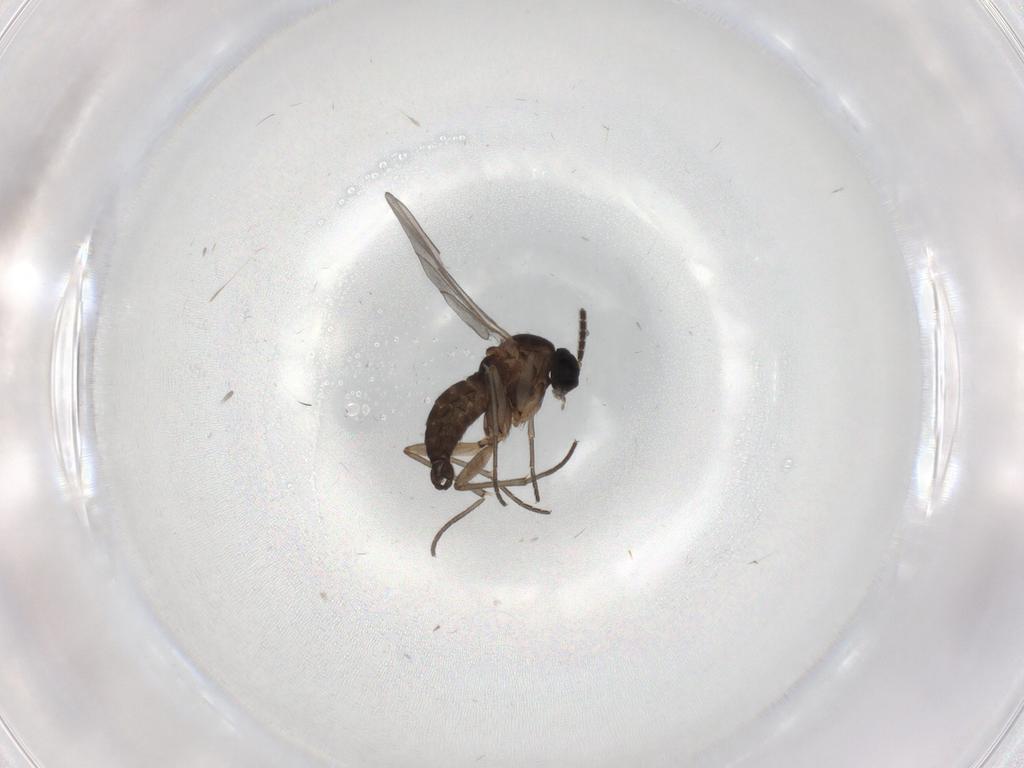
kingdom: Animalia
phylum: Arthropoda
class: Insecta
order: Diptera
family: Sciaridae
